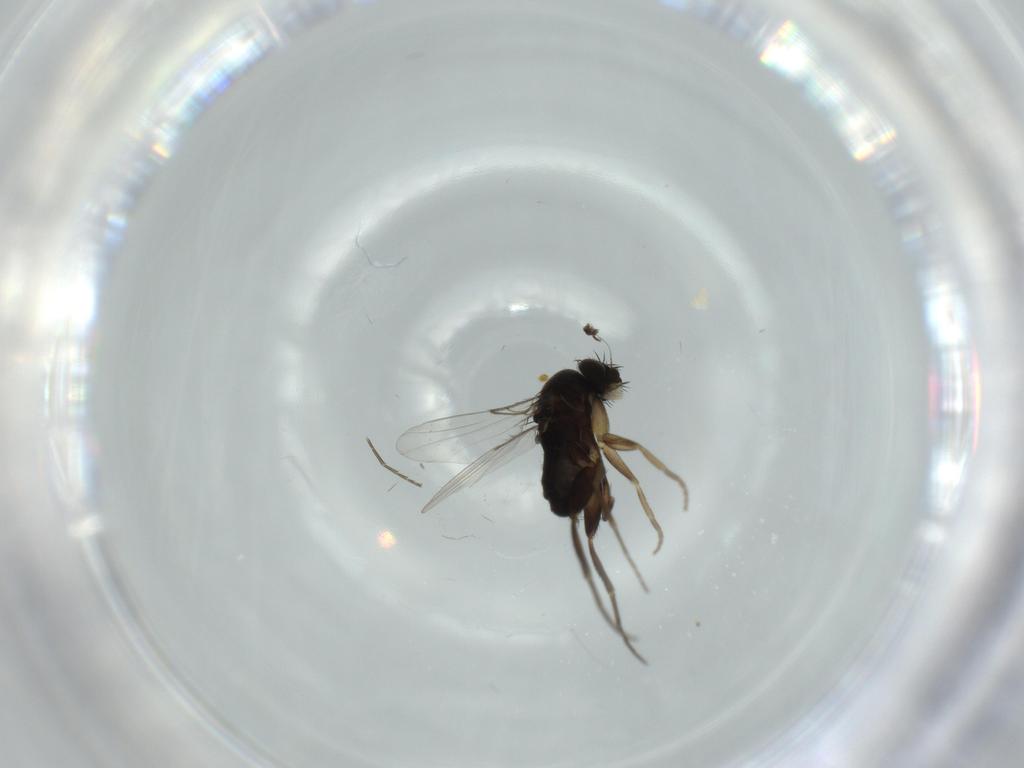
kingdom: Animalia
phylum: Arthropoda
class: Insecta
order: Diptera
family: Phoridae
